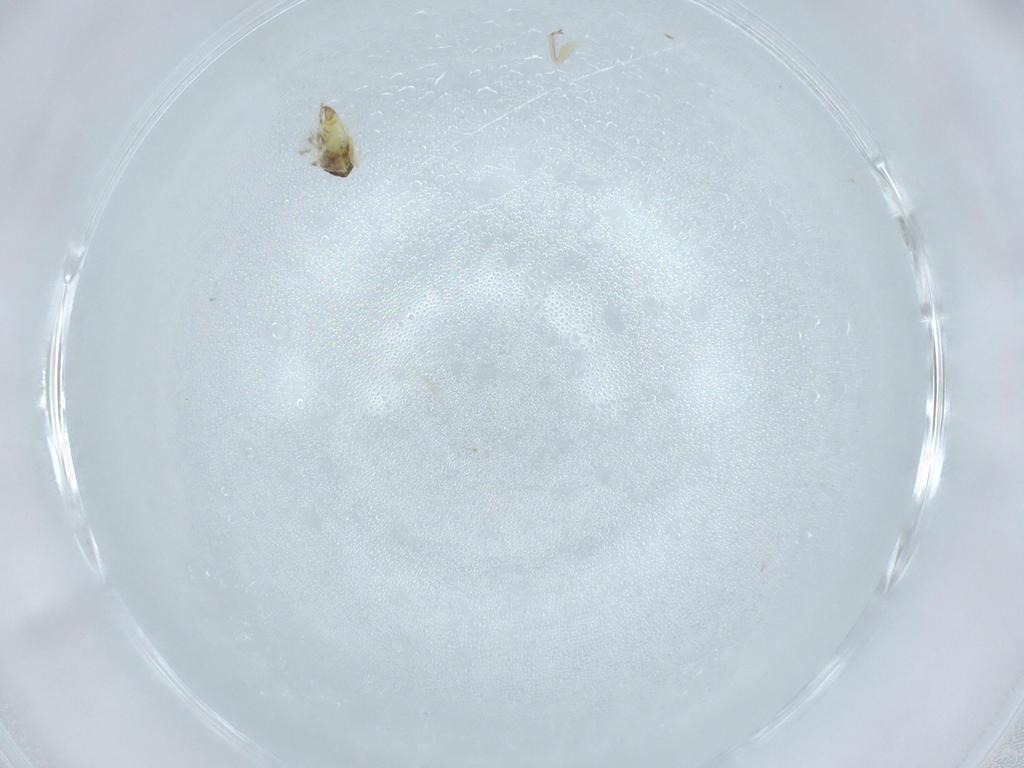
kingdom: Animalia
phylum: Arthropoda
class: Insecta
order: Hemiptera
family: Aleyrodidae
